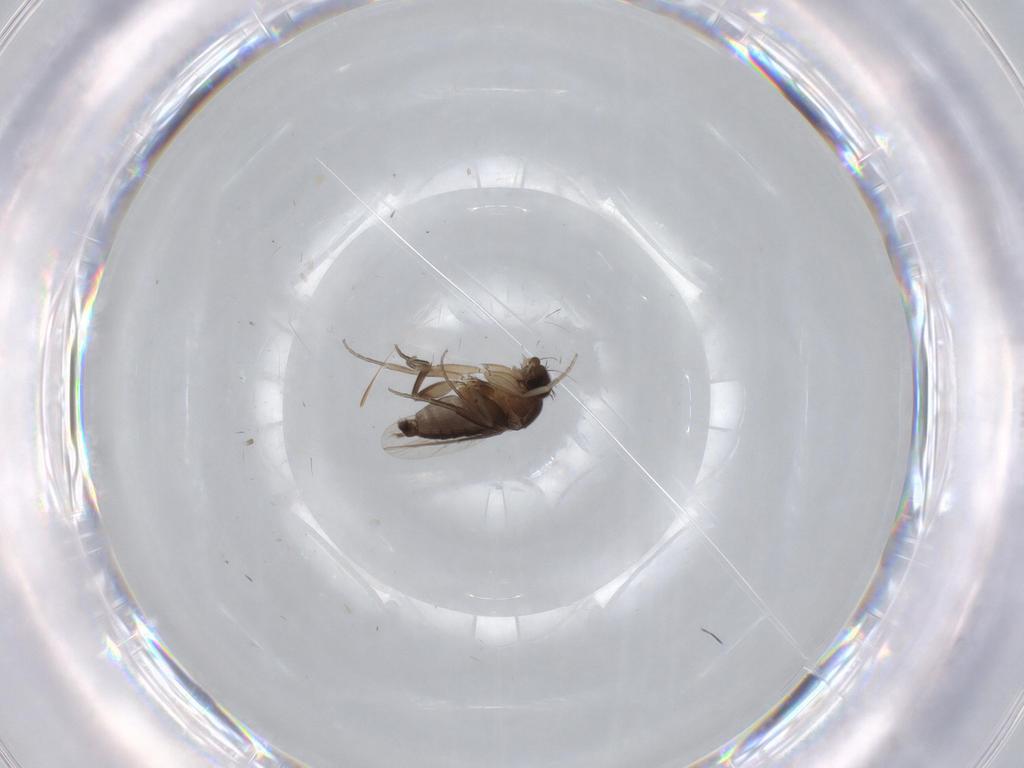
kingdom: Animalia
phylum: Arthropoda
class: Insecta
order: Diptera
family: Phoridae
